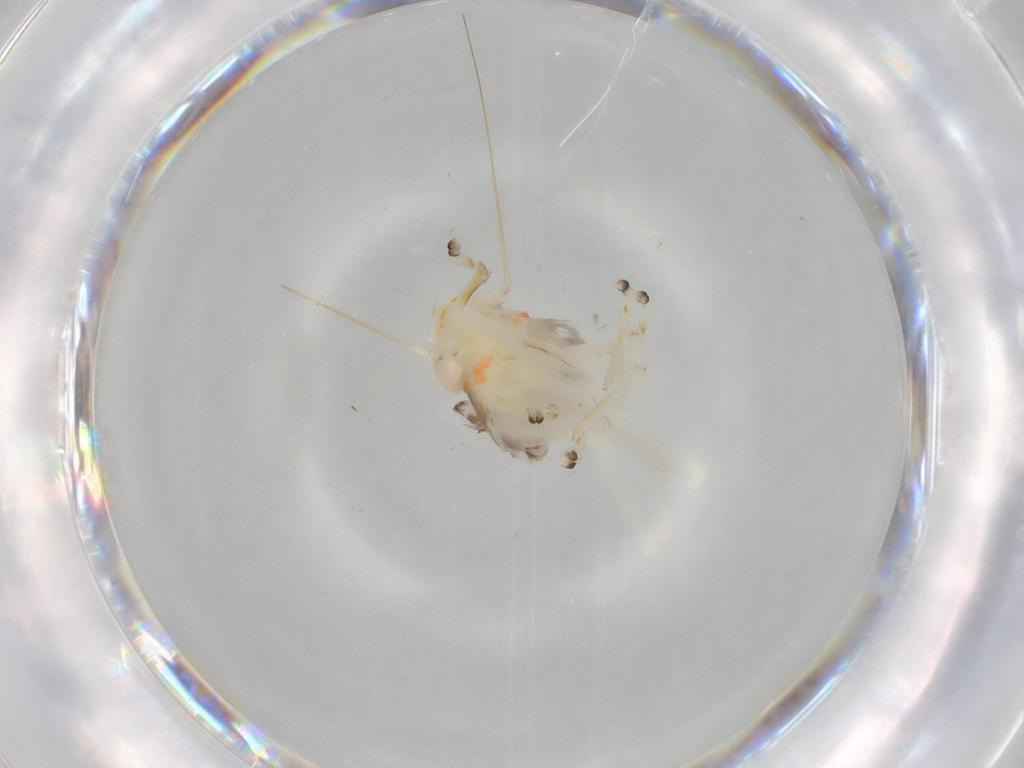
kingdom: Animalia
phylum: Arthropoda
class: Insecta
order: Hemiptera
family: Cicadellidae
